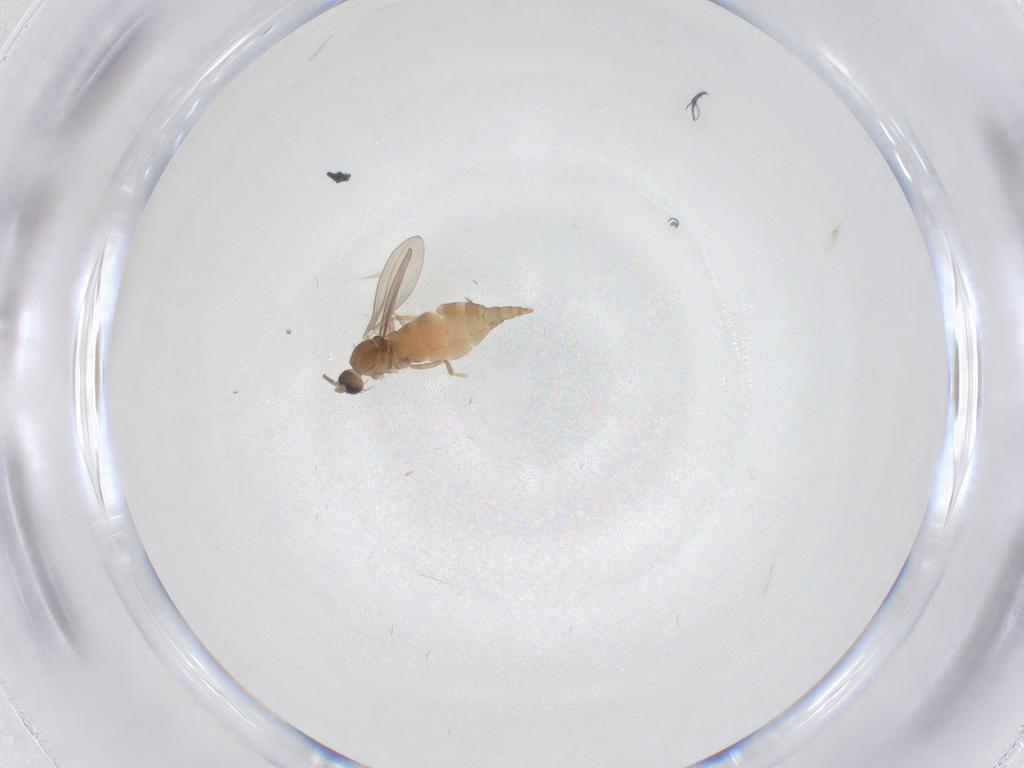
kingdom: Animalia
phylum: Arthropoda
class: Insecta
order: Diptera
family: Cecidomyiidae
